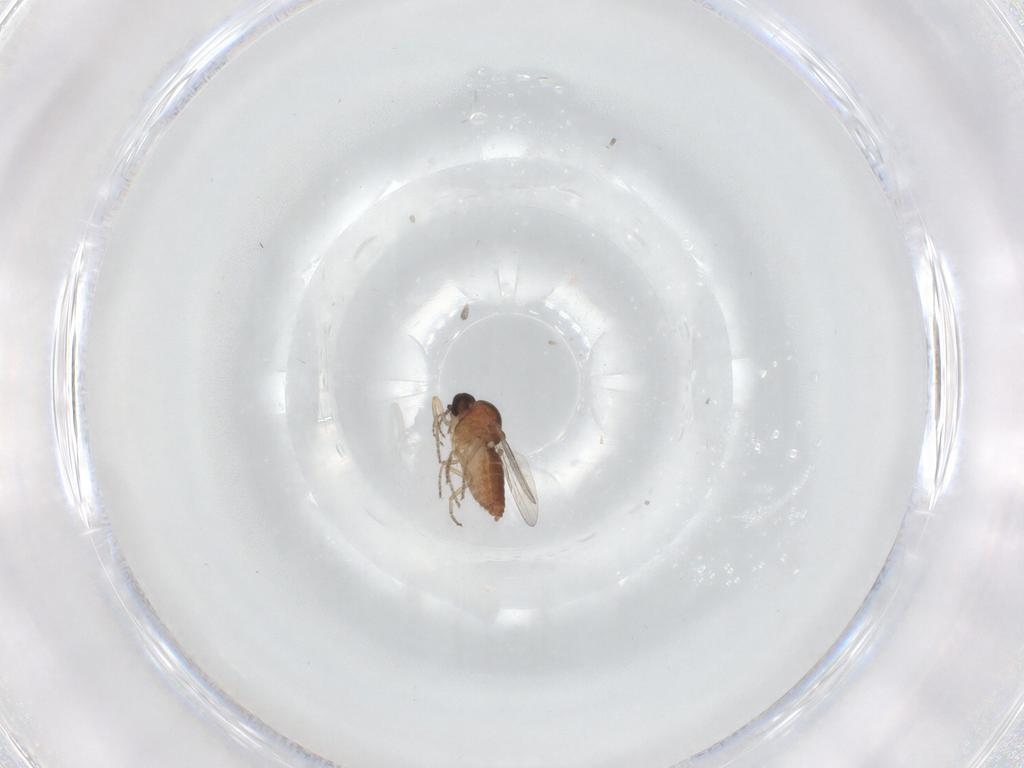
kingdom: Animalia
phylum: Arthropoda
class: Insecta
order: Diptera
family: Ceratopogonidae
